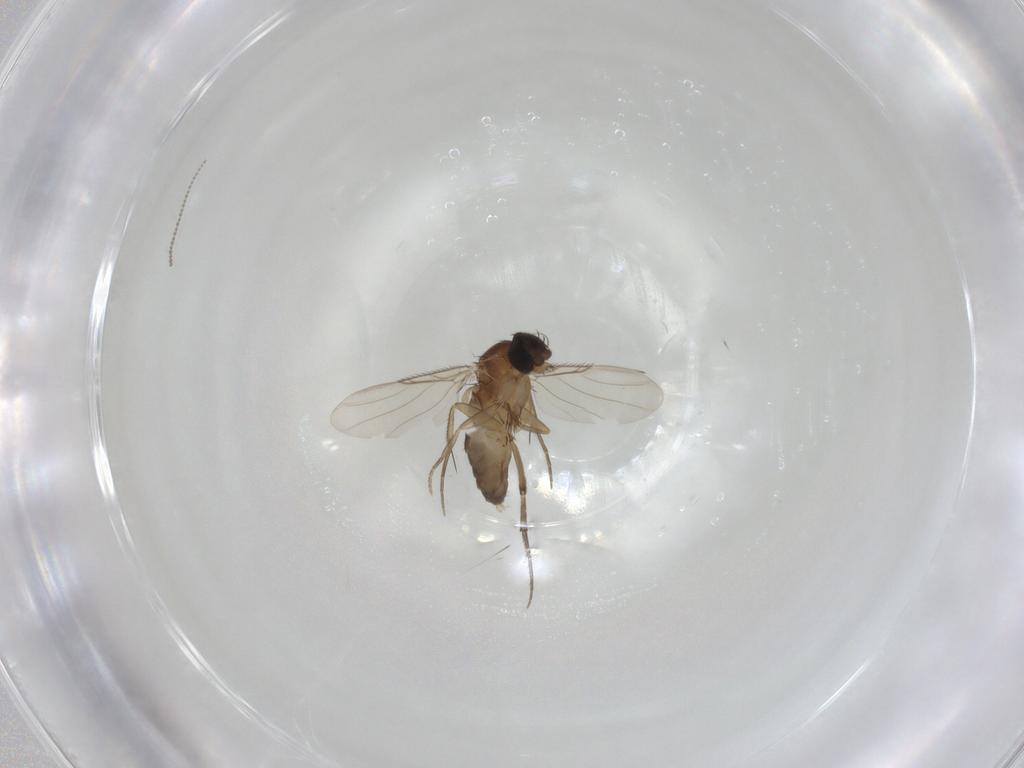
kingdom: Animalia
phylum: Arthropoda
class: Insecta
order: Diptera
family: Phoridae
